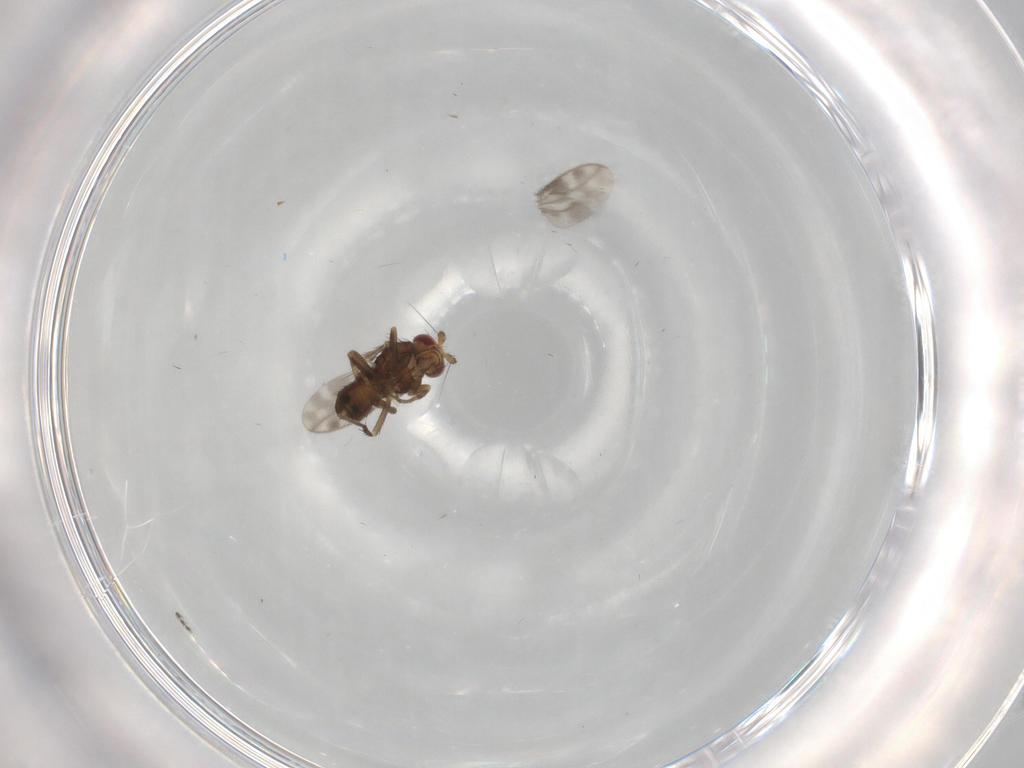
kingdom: Animalia
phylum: Arthropoda
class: Insecta
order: Diptera
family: Sphaeroceridae
